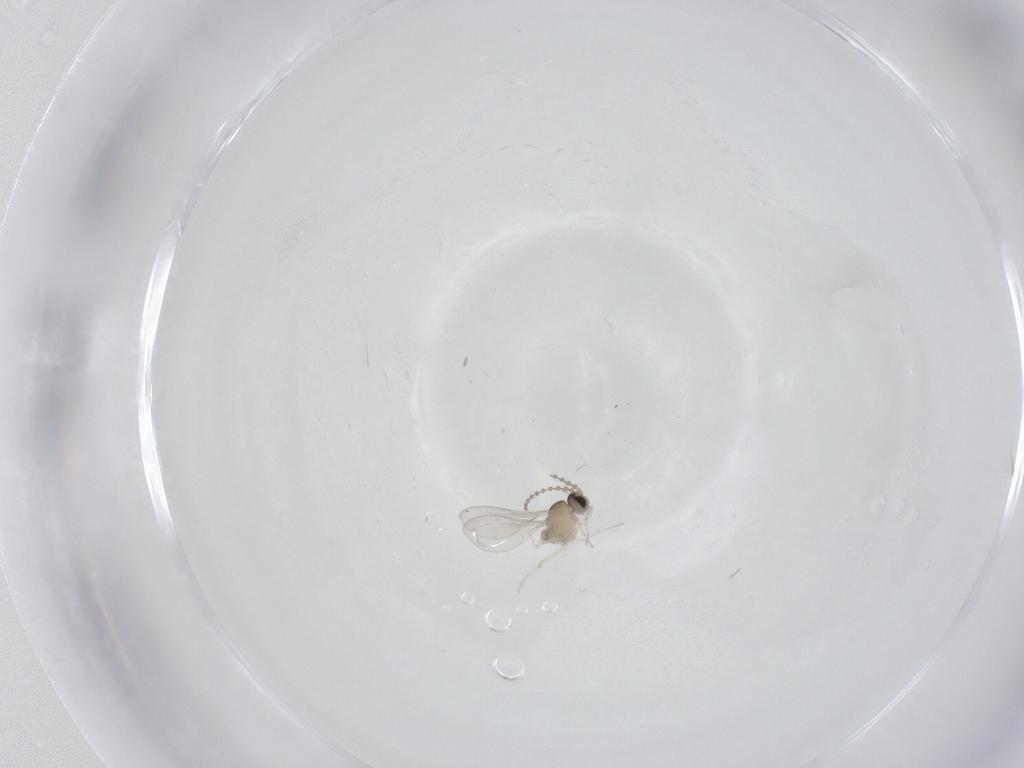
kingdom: Animalia
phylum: Arthropoda
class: Insecta
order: Diptera
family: Cecidomyiidae
